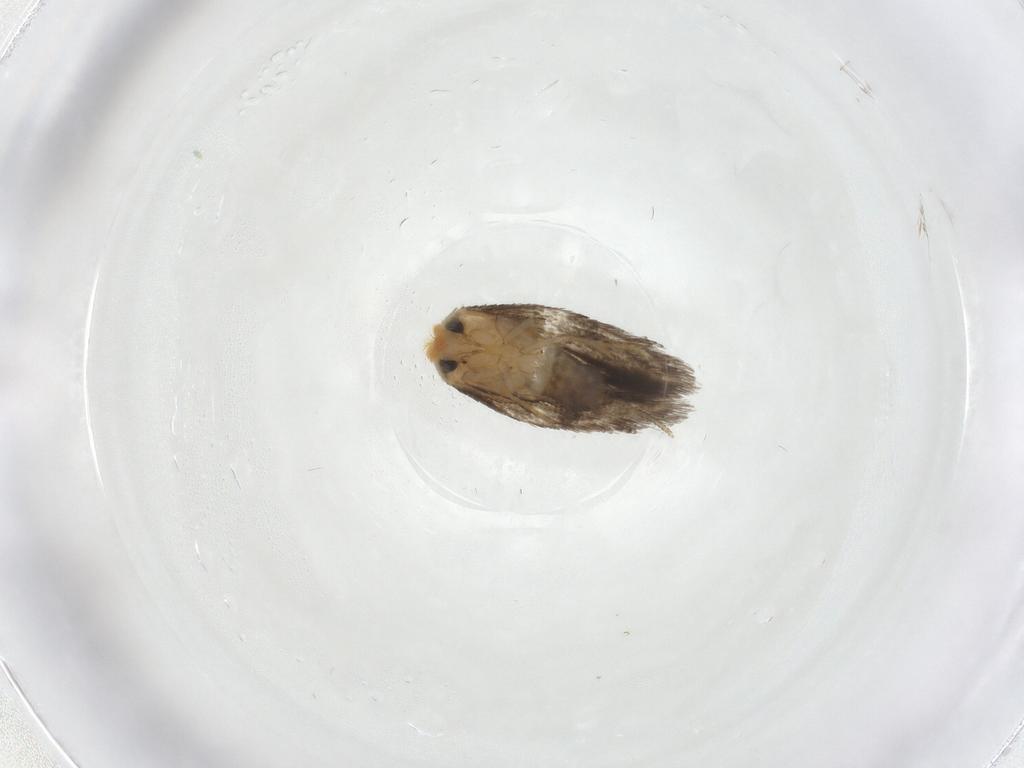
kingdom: Animalia
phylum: Arthropoda
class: Insecta
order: Lepidoptera
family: Nepticulidae
